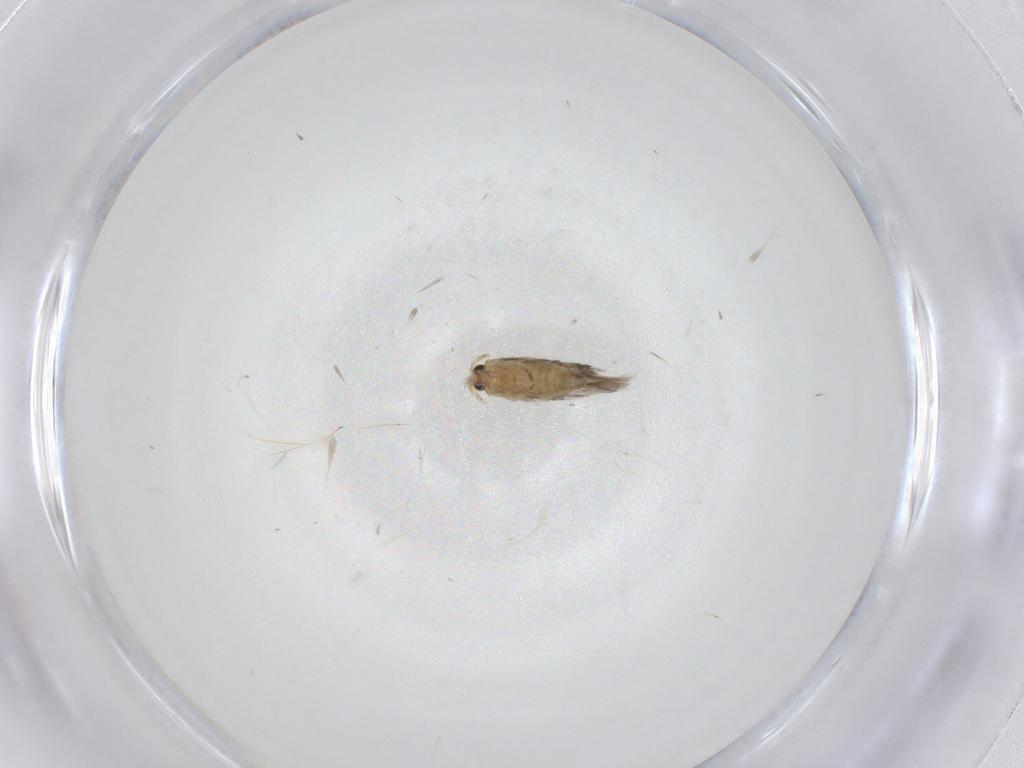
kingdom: Animalia
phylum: Arthropoda
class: Insecta
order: Lepidoptera
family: Nepticulidae
